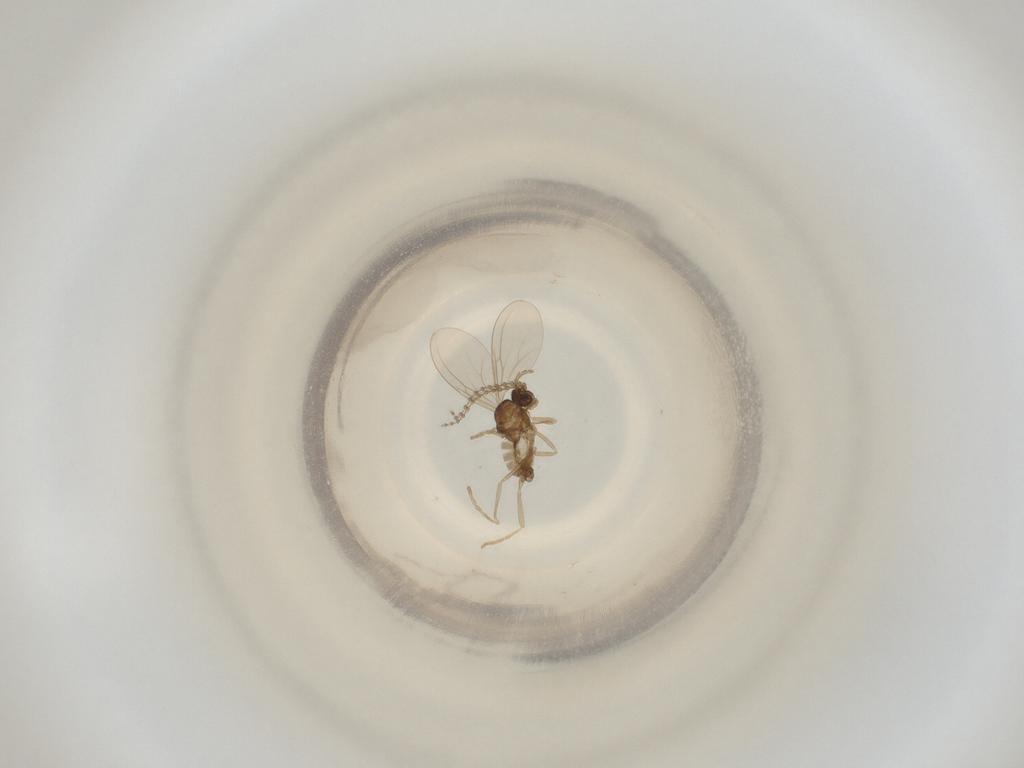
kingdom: Animalia
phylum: Arthropoda
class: Insecta
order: Diptera
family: Cecidomyiidae
